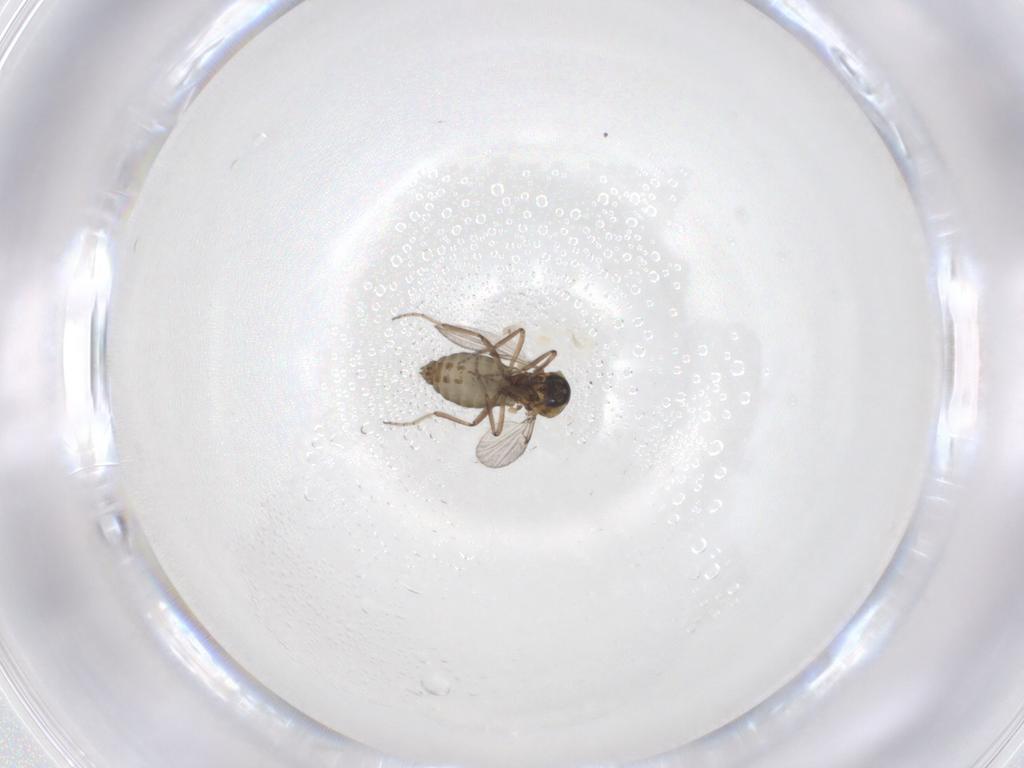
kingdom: Animalia
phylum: Arthropoda
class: Insecta
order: Diptera
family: Ceratopogonidae
